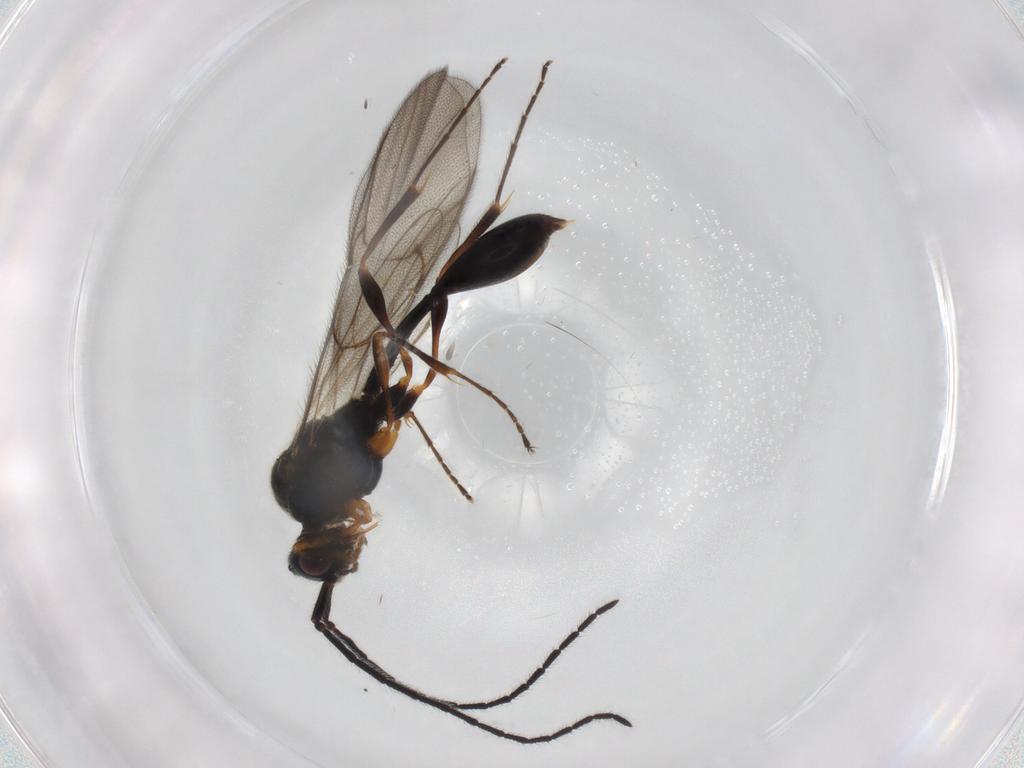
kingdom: Animalia
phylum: Arthropoda
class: Insecta
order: Hymenoptera
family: Diapriidae
